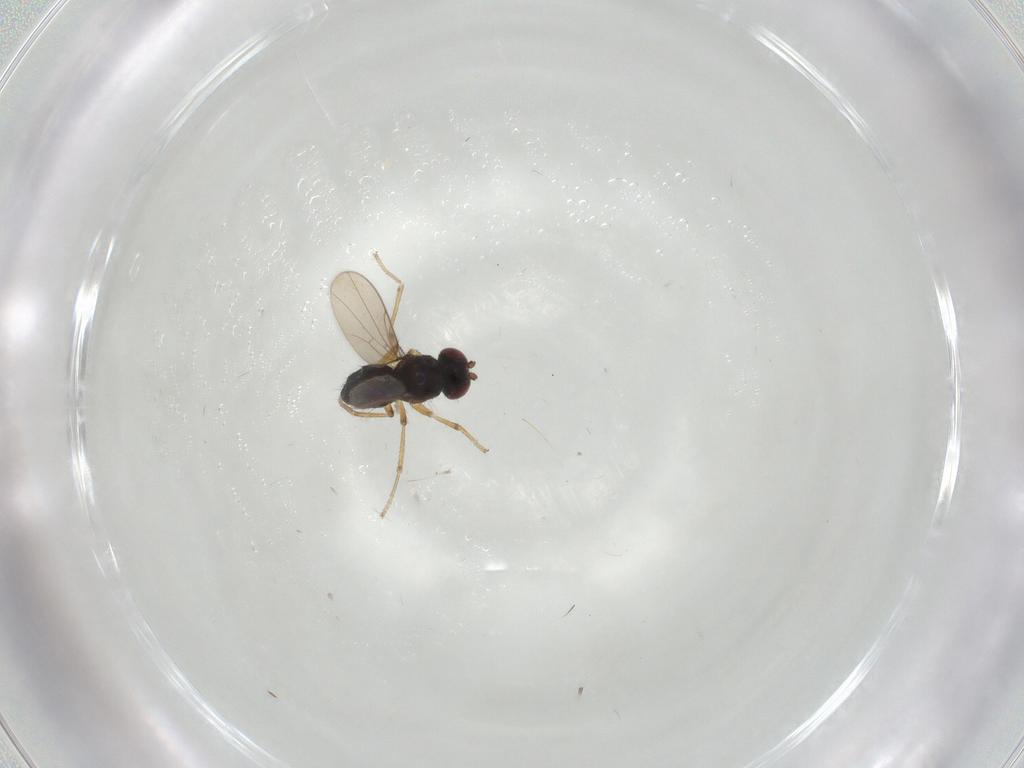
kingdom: Animalia
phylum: Arthropoda
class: Insecta
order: Diptera
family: Ephydridae
